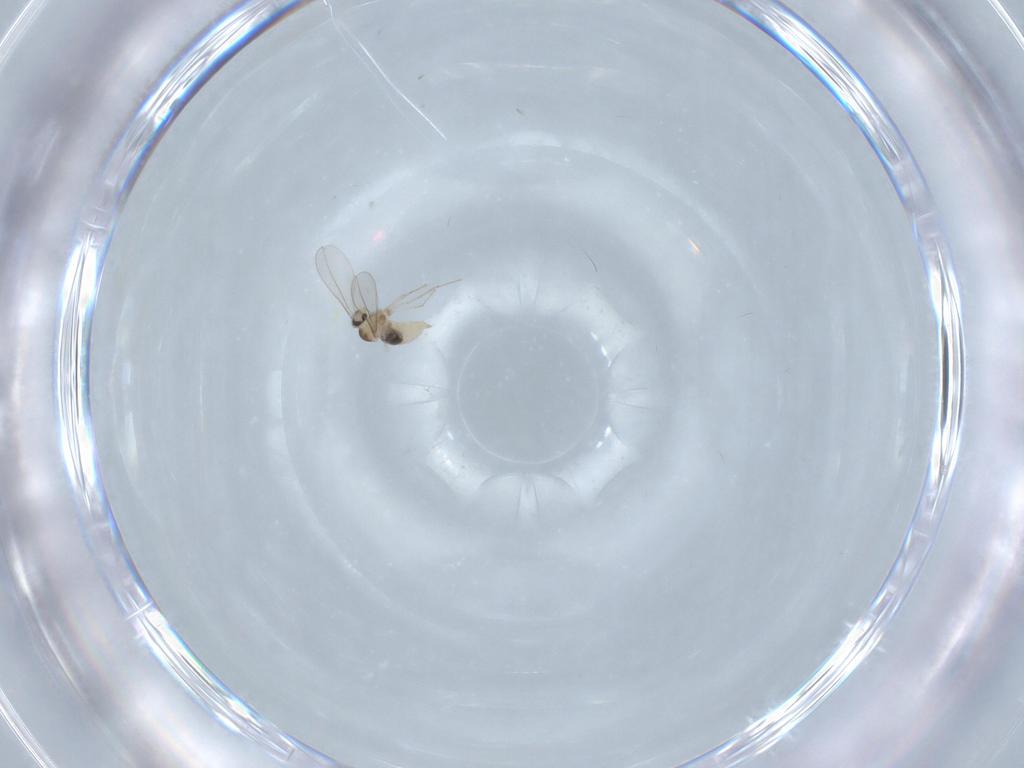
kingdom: Animalia
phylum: Arthropoda
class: Insecta
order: Diptera
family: Cecidomyiidae
